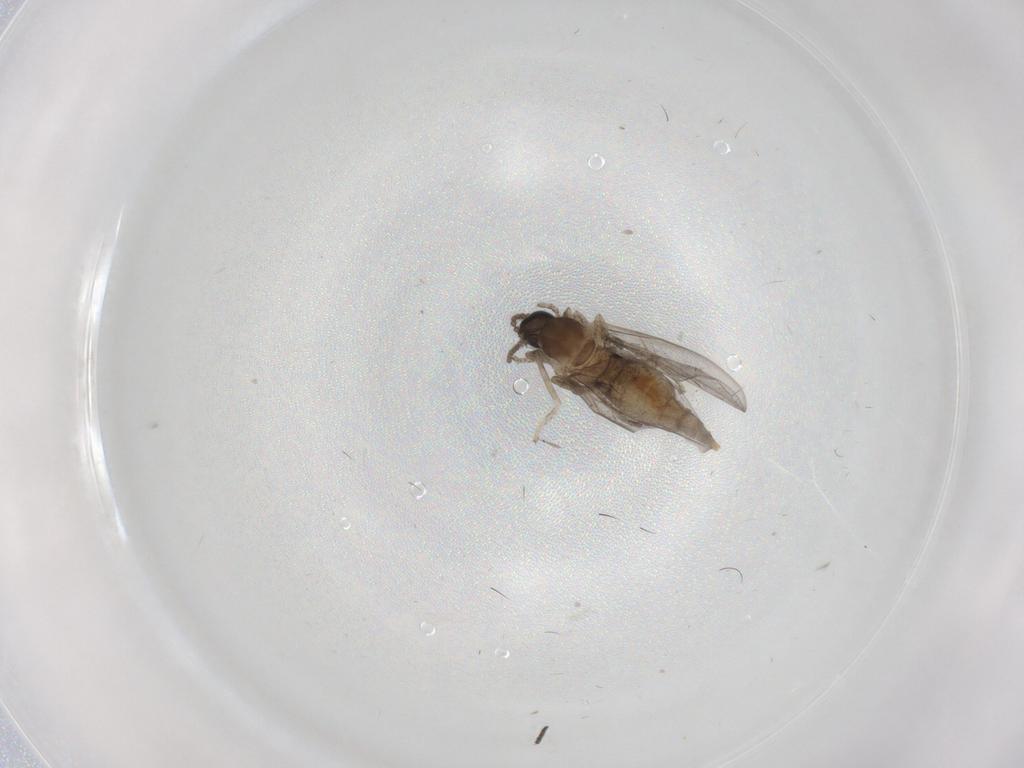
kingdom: Animalia
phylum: Arthropoda
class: Insecta
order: Diptera
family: Cecidomyiidae
